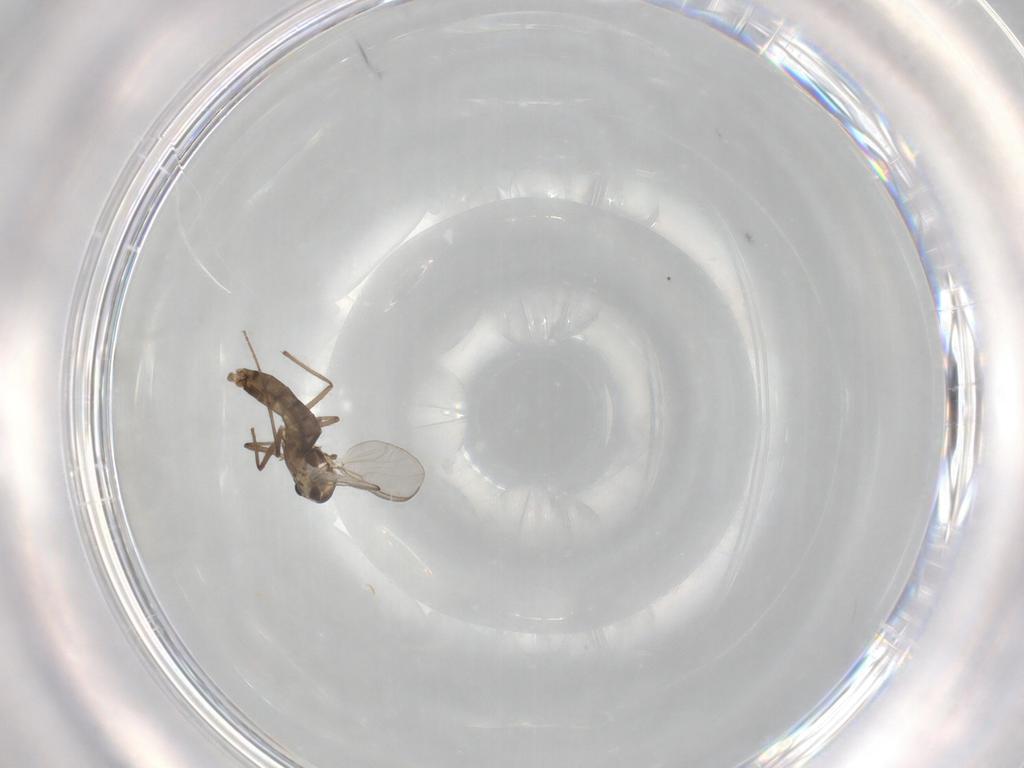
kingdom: Animalia
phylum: Arthropoda
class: Insecta
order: Diptera
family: Chironomidae
